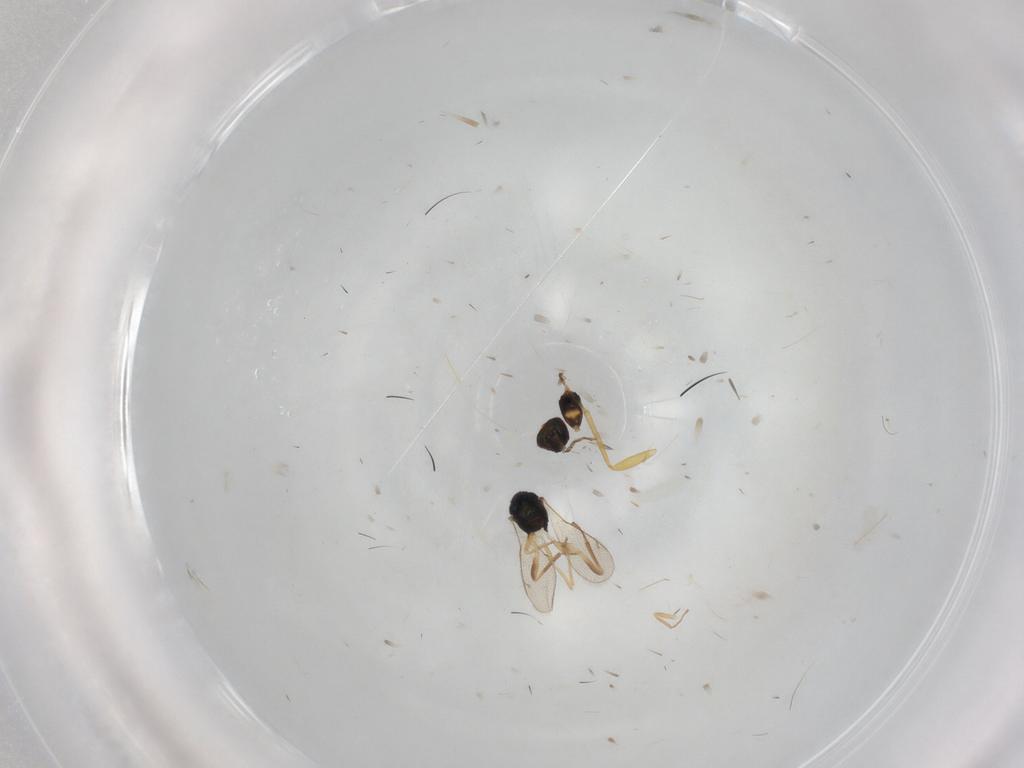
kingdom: Animalia
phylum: Arthropoda
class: Insecta
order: Hymenoptera
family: Eulophidae
